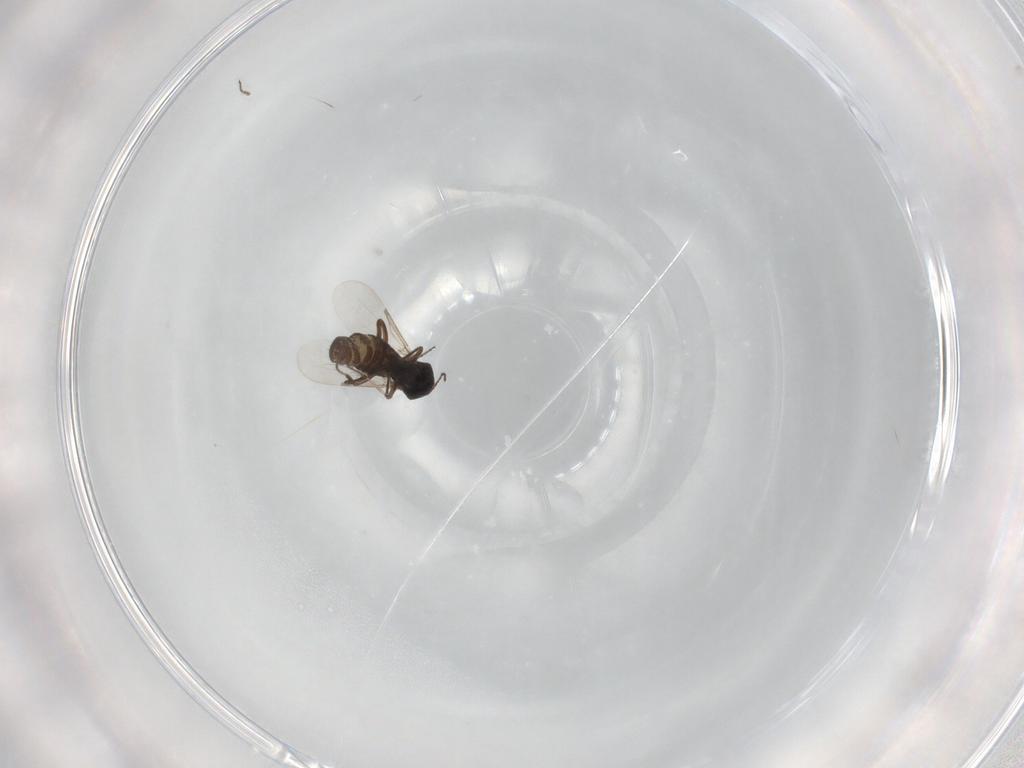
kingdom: Animalia
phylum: Arthropoda
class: Insecta
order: Diptera
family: Ceratopogonidae
